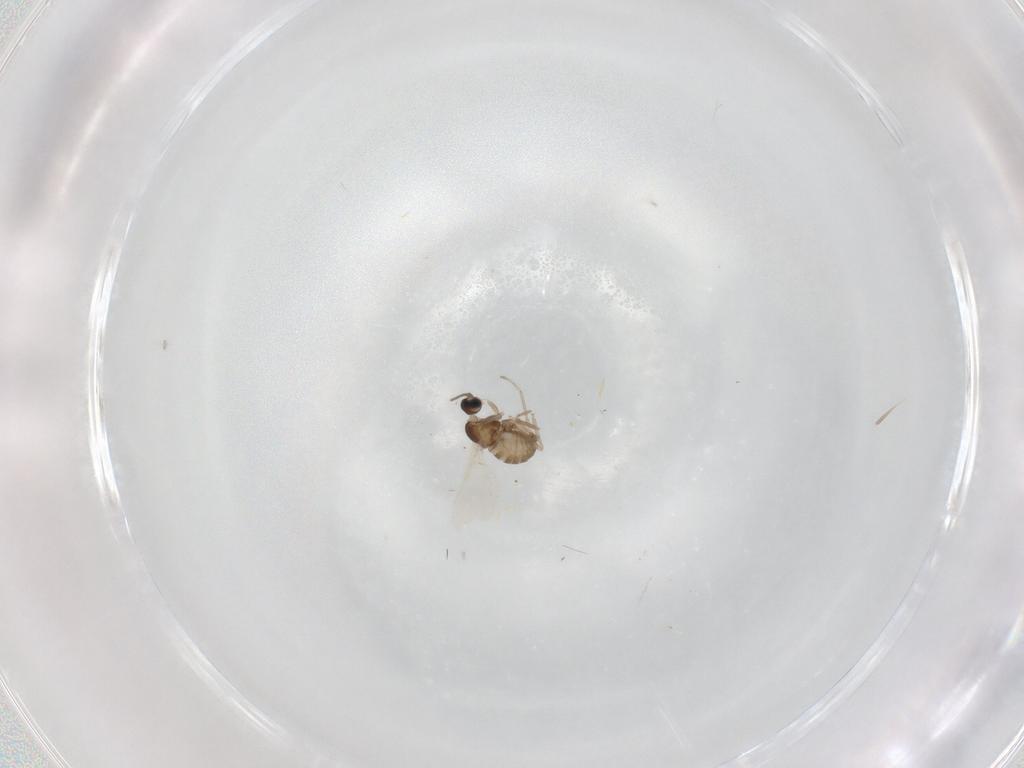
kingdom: Animalia
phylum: Arthropoda
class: Insecta
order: Diptera
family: Cecidomyiidae
